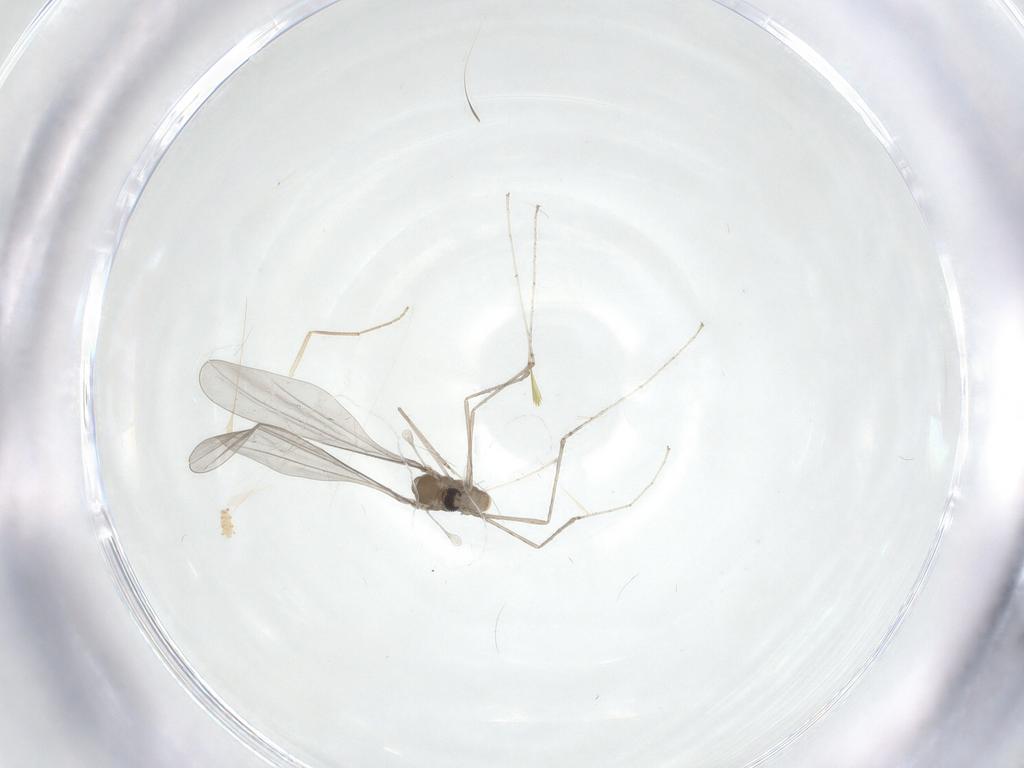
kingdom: Animalia
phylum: Arthropoda
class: Insecta
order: Diptera
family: Cecidomyiidae
